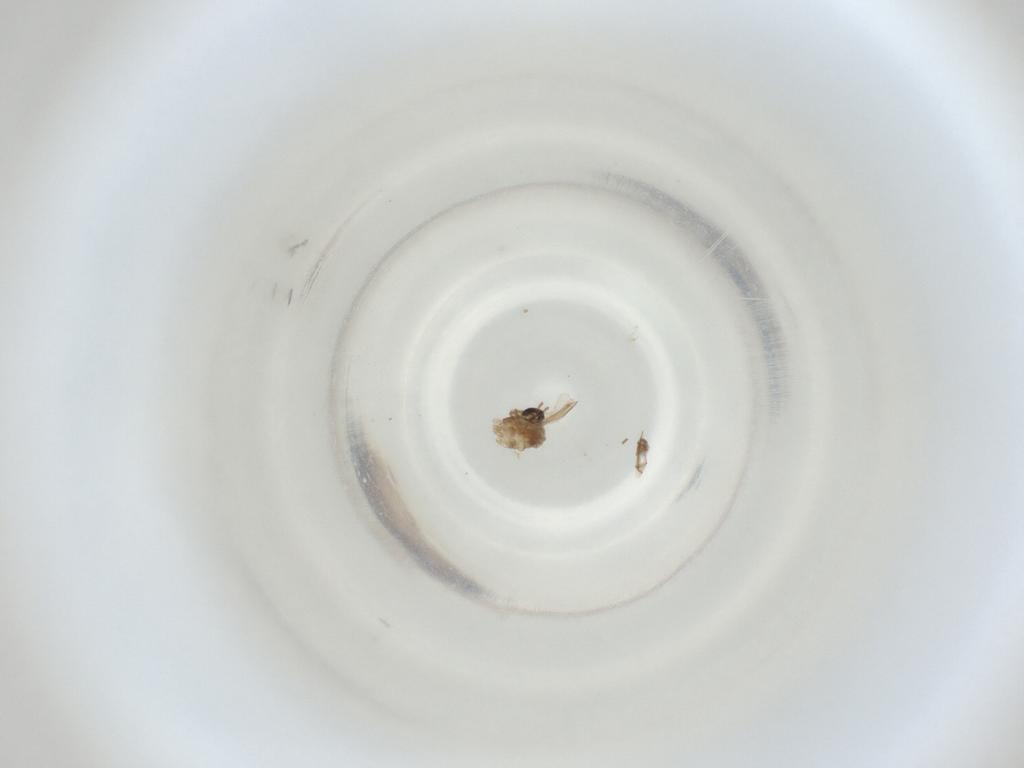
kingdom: Animalia
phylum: Arthropoda
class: Insecta
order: Diptera
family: Cecidomyiidae
